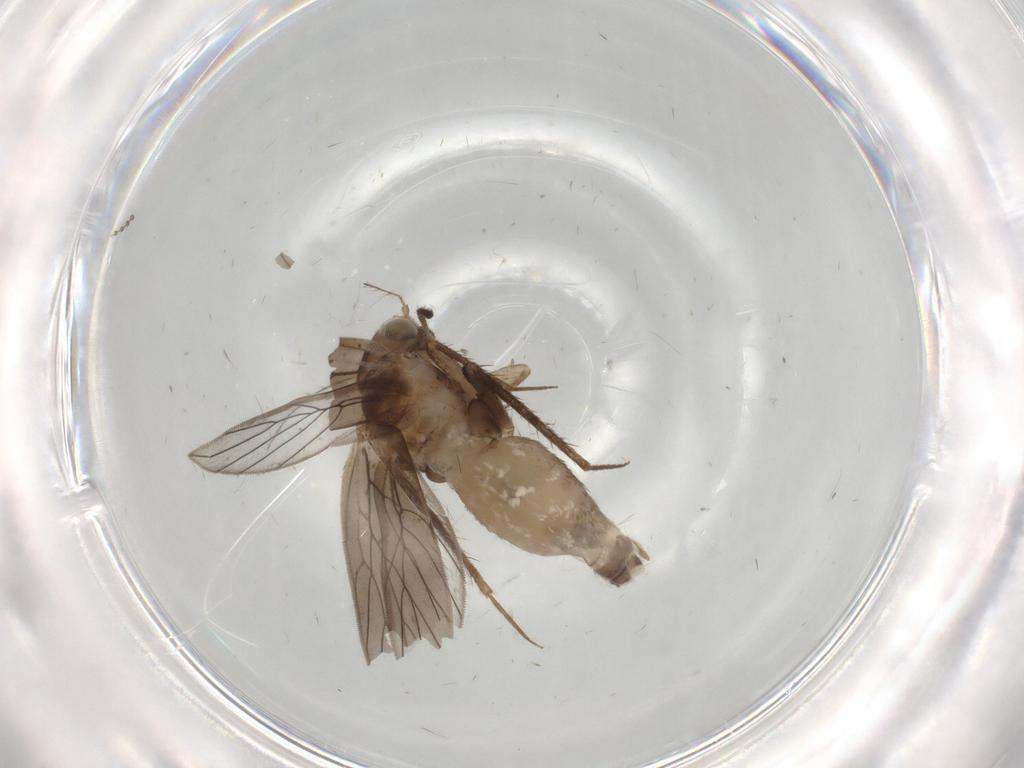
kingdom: Animalia
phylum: Arthropoda
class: Insecta
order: Psocodea
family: Lepidopsocidae
